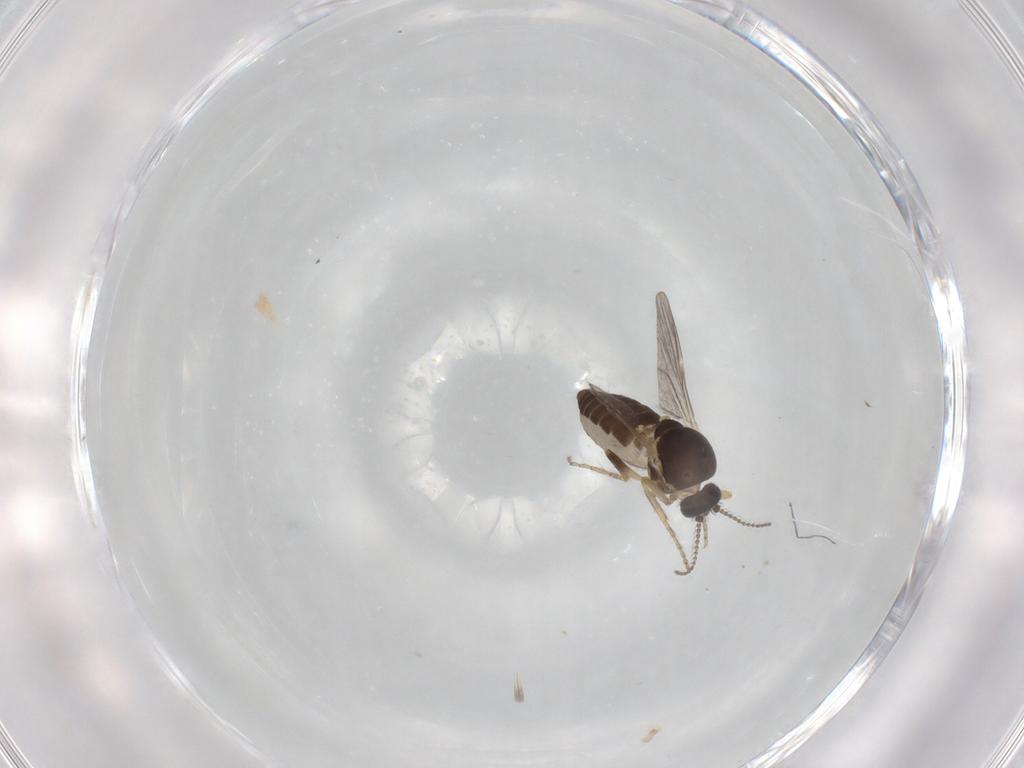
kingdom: Animalia
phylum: Arthropoda
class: Insecta
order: Diptera
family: Ceratopogonidae
